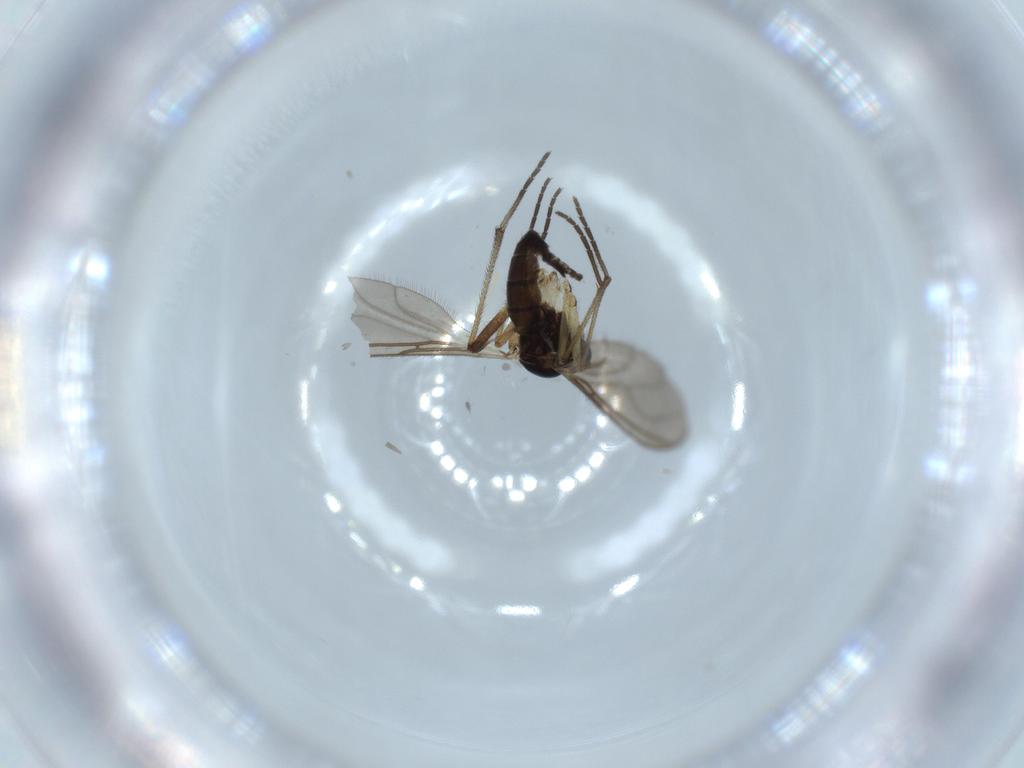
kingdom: Animalia
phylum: Arthropoda
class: Insecta
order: Diptera
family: Sciaridae
